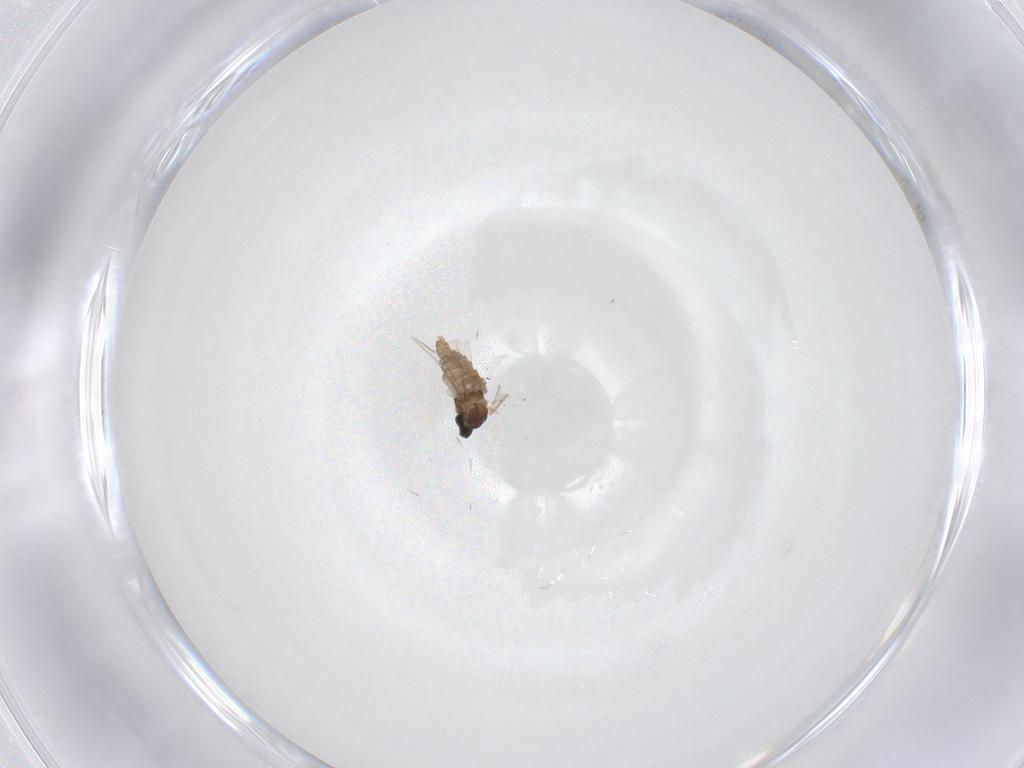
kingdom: Animalia
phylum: Arthropoda
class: Insecta
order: Diptera
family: Cecidomyiidae
